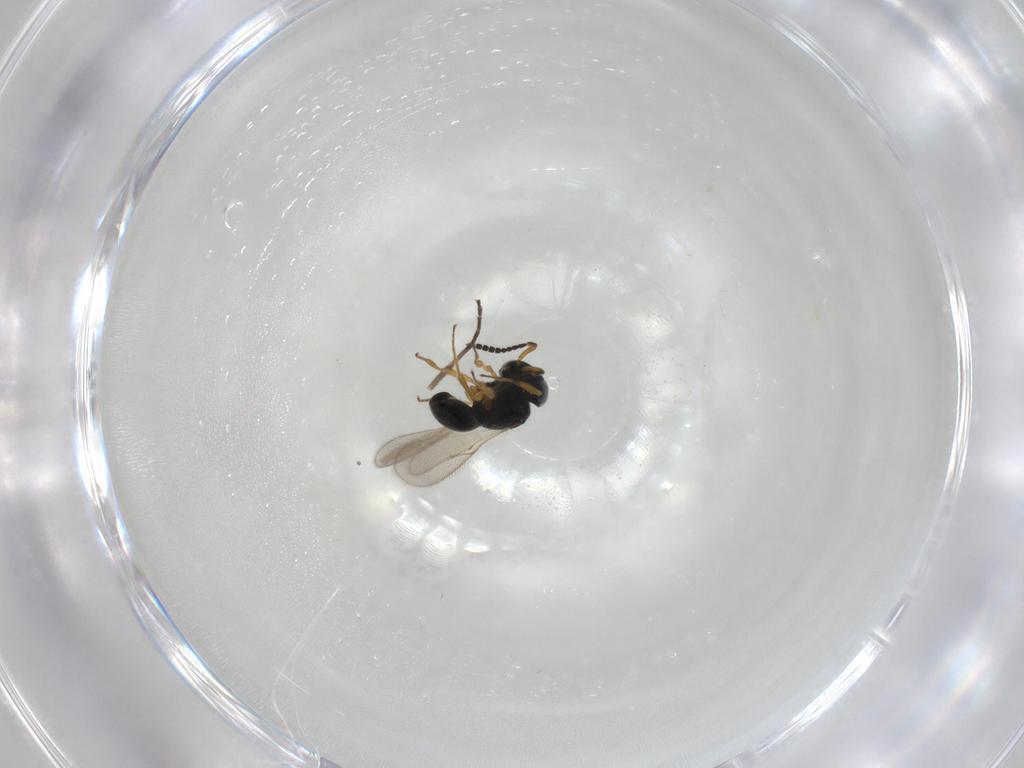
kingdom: Animalia
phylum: Arthropoda
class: Insecta
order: Hymenoptera
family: Scelionidae
